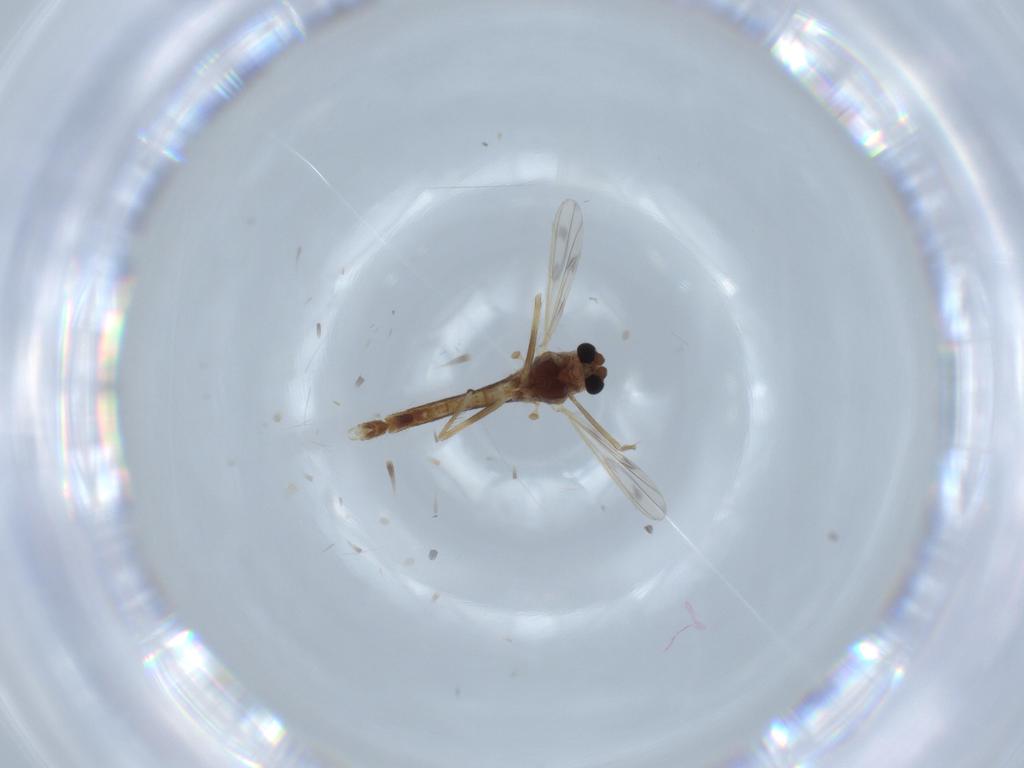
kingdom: Animalia
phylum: Arthropoda
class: Insecta
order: Diptera
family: Chironomidae
